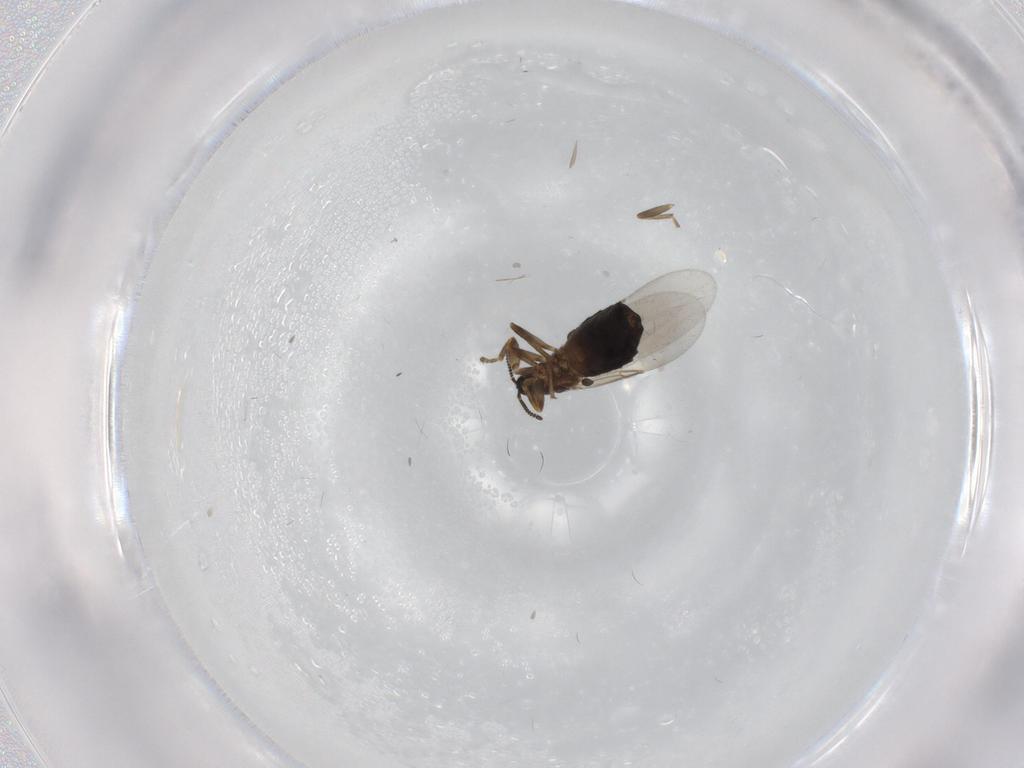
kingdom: Animalia
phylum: Arthropoda
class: Insecta
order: Diptera
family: Scatopsidae
